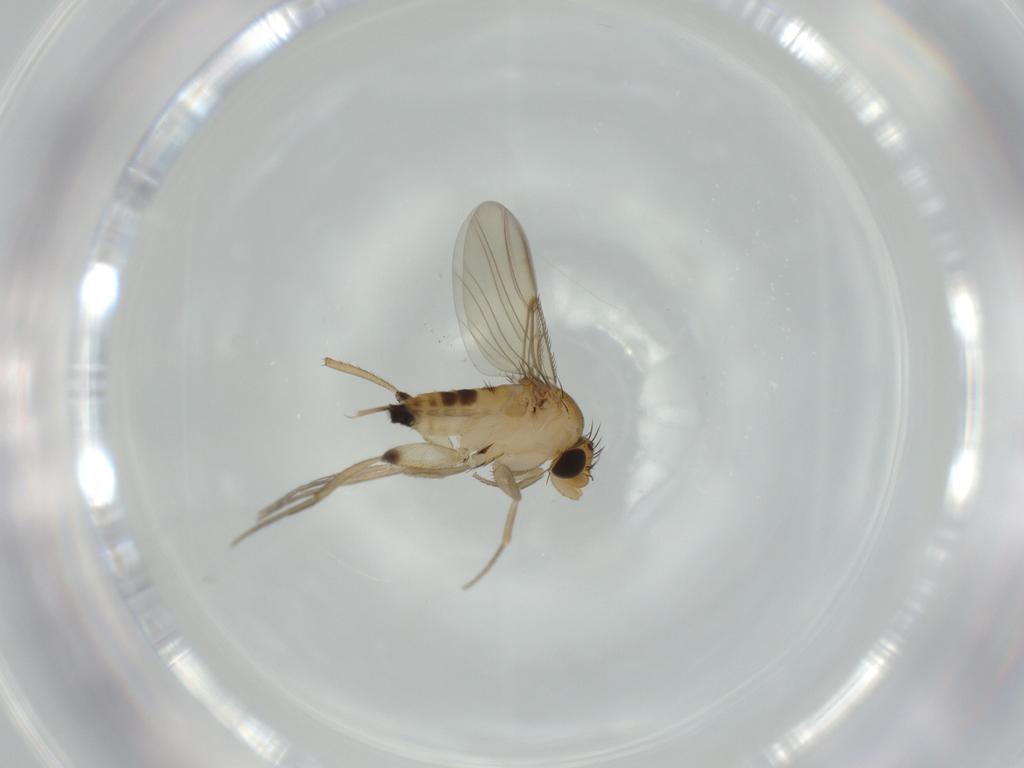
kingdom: Animalia
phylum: Arthropoda
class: Insecta
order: Diptera
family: Phoridae
